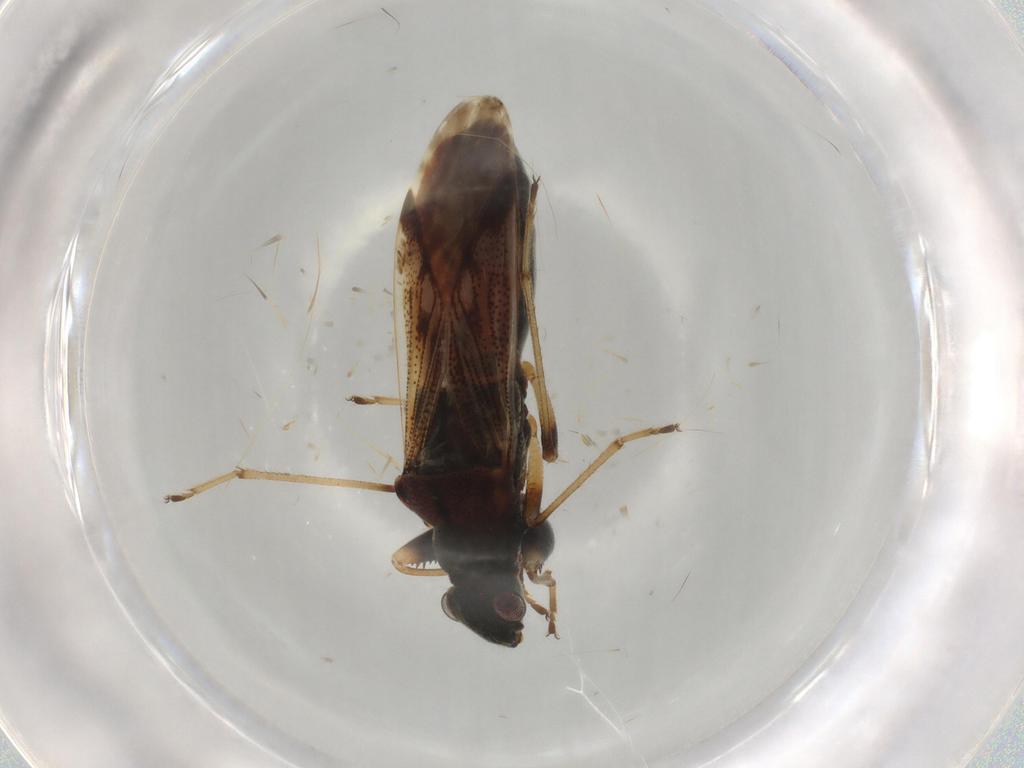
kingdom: Animalia
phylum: Arthropoda
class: Insecta
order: Hemiptera
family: Rhyparochromidae
